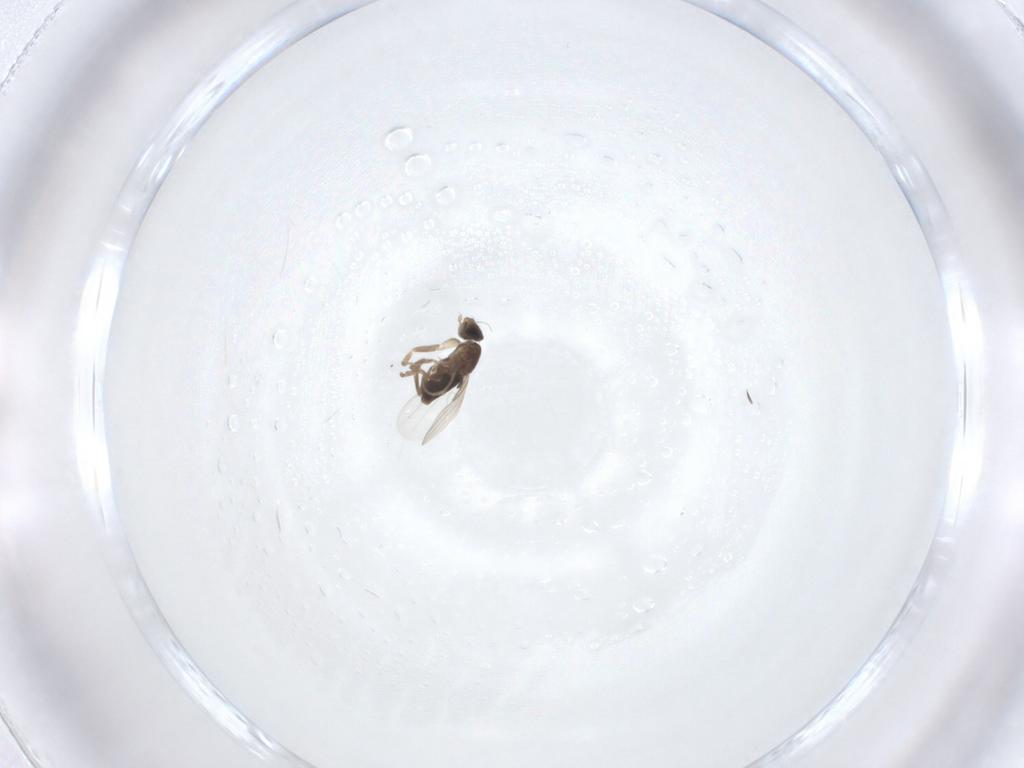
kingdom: Animalia
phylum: Arthropoda
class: Insecta
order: Diptera
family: Phoridae
